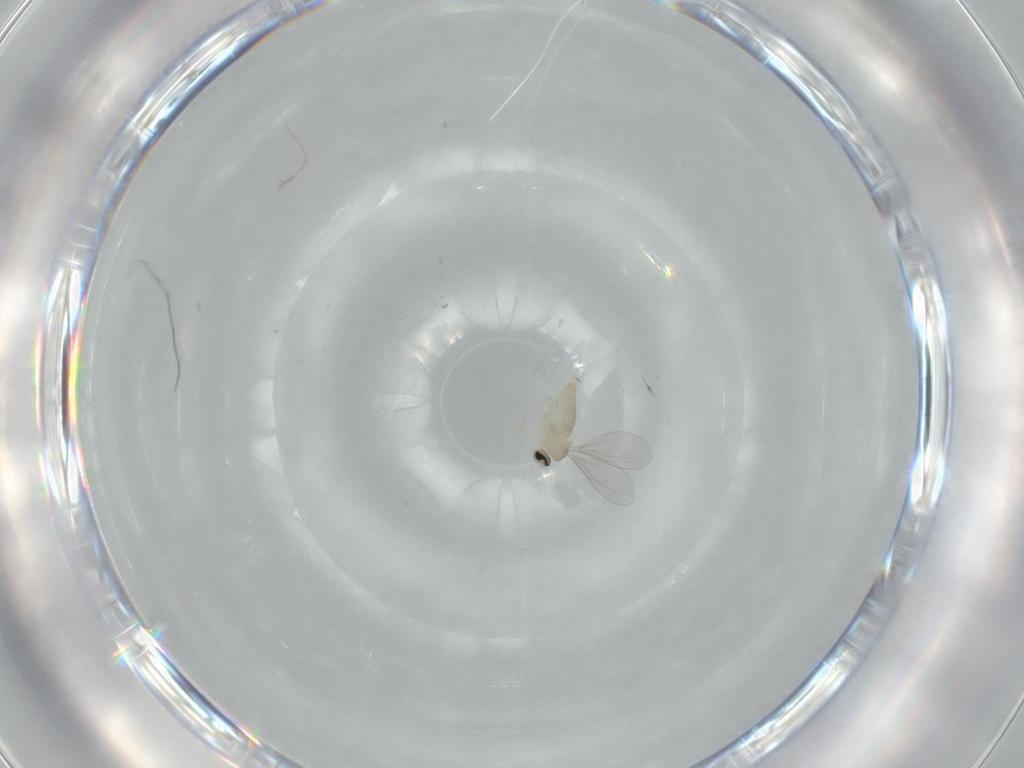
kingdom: Animalia
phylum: Arthropoda
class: Insecta
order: Diptera
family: Cecidomyiidae
